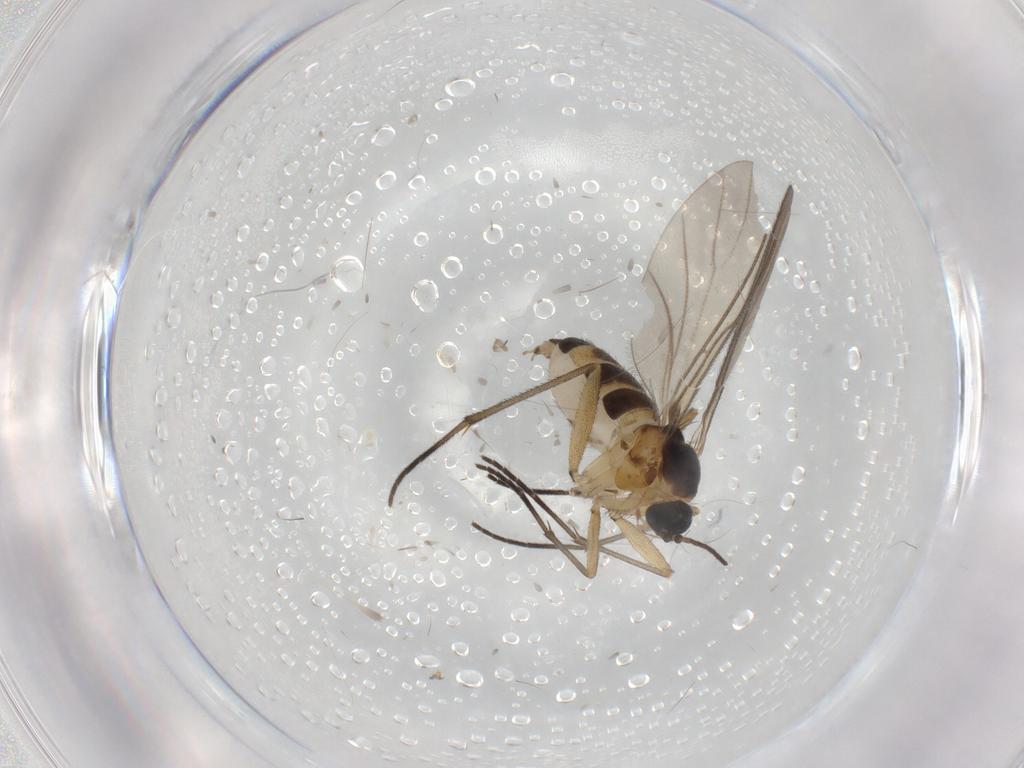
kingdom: Animalia
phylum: Arthropoda
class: Insecta
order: Diptera
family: Sciaridae
